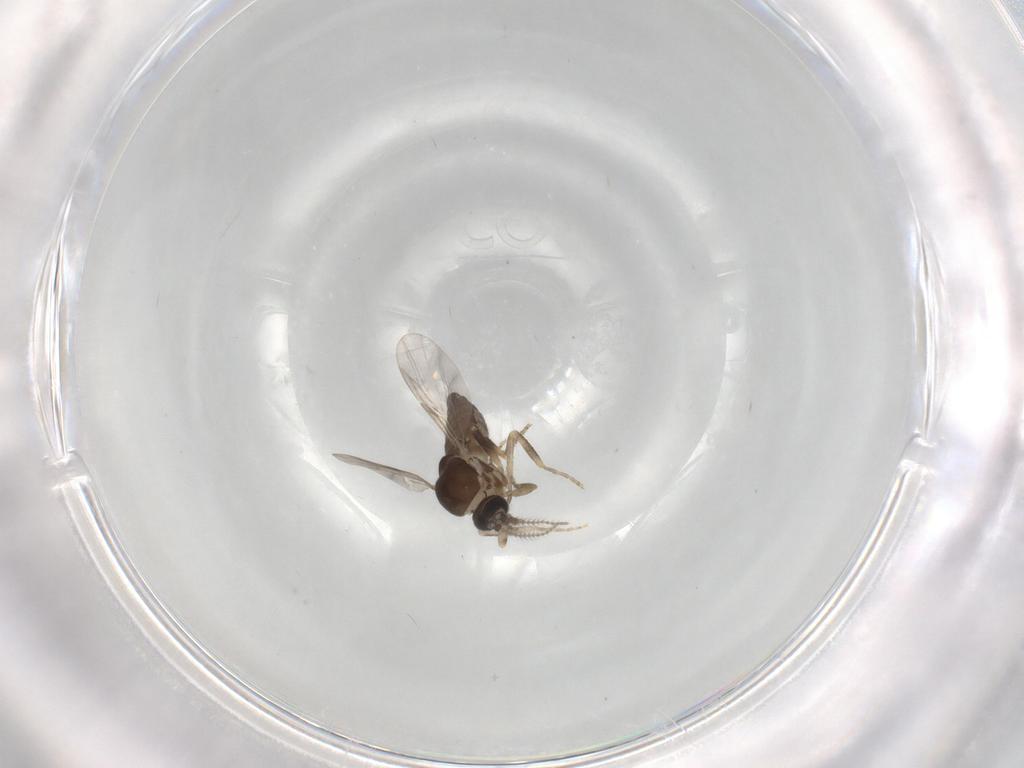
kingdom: Animalia
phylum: Arthropoda
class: Insecta
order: Diptera
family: Ceratopogonidae
